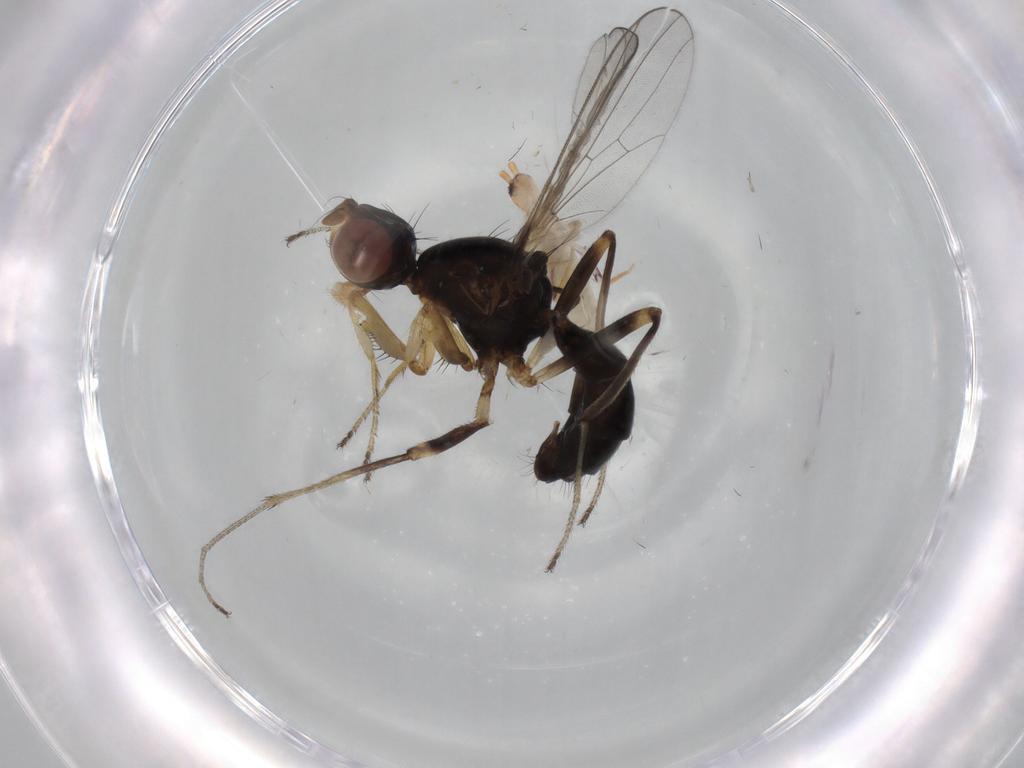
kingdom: Animalia
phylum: Arthropoda
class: Insecta
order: Diptera
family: Sepsidae
